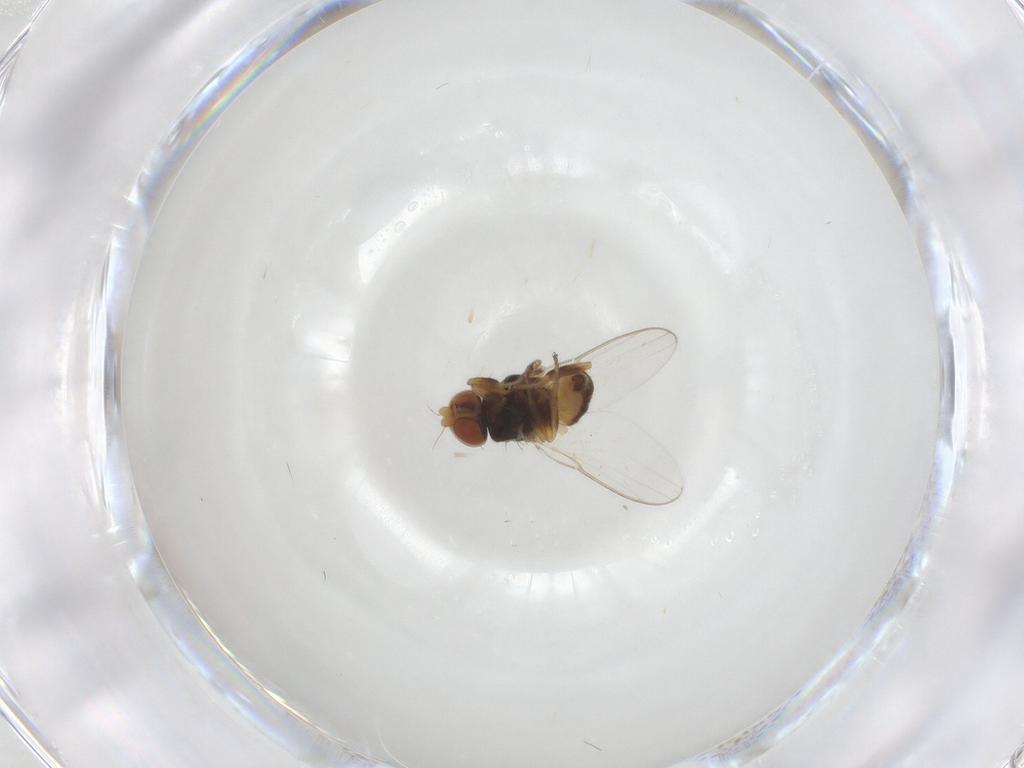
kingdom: Animalia
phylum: Arthropoda
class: Insecta
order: Diptera
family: Chloropidae
